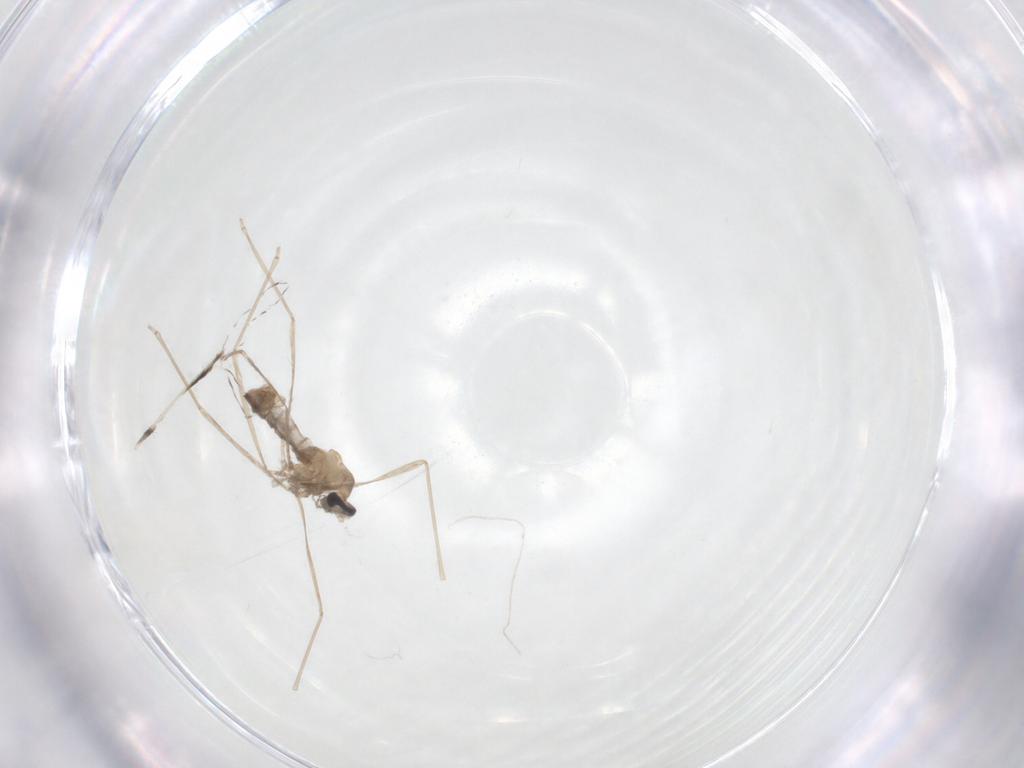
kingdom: Animalia
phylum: Arthropoda
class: Insecta
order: Diptera
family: Cecidomyiidae
